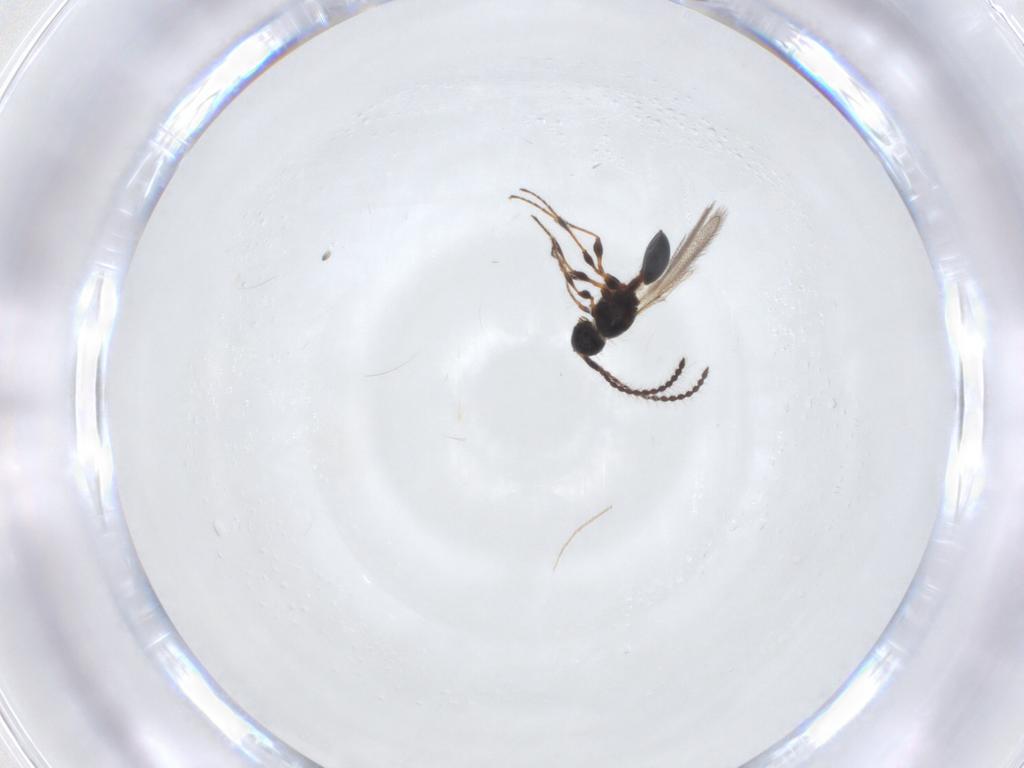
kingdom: Animalia
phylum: Arthropoda
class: Insecta
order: Hymenoptera
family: Diapriidae
